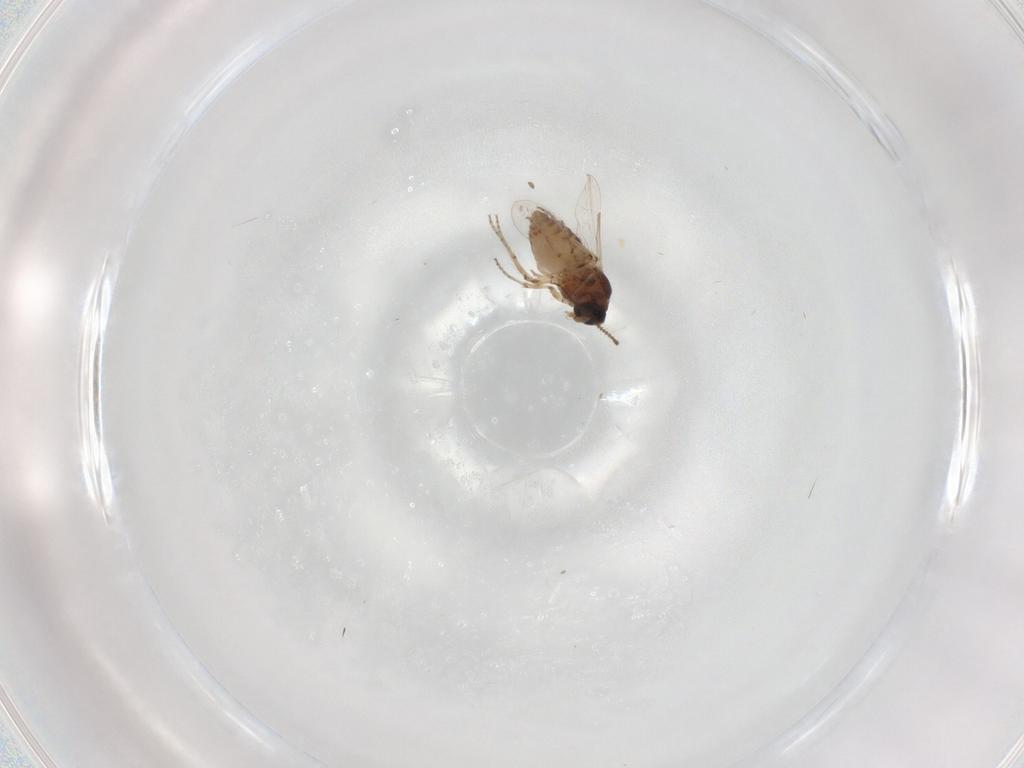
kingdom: Animalia
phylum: Arthropoda
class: Insecta
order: Diptera
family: Ceratopogonidae
